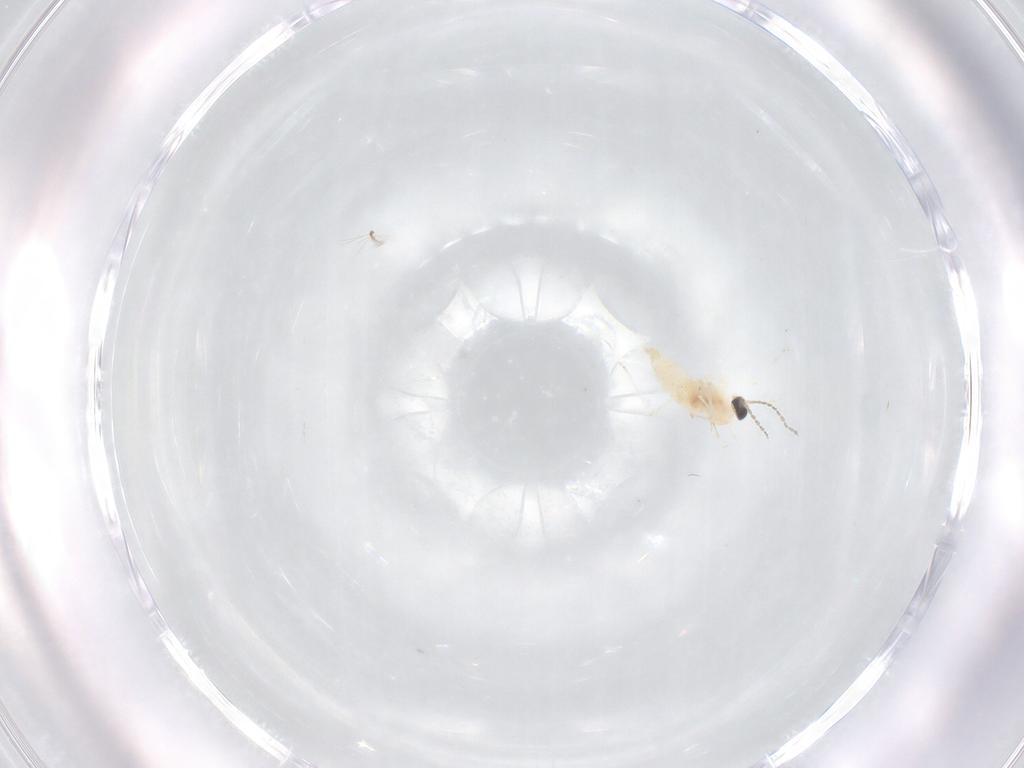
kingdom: Animalia
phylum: Arthropoda
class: Insecta
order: Diptera
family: Cecidomyiidae
